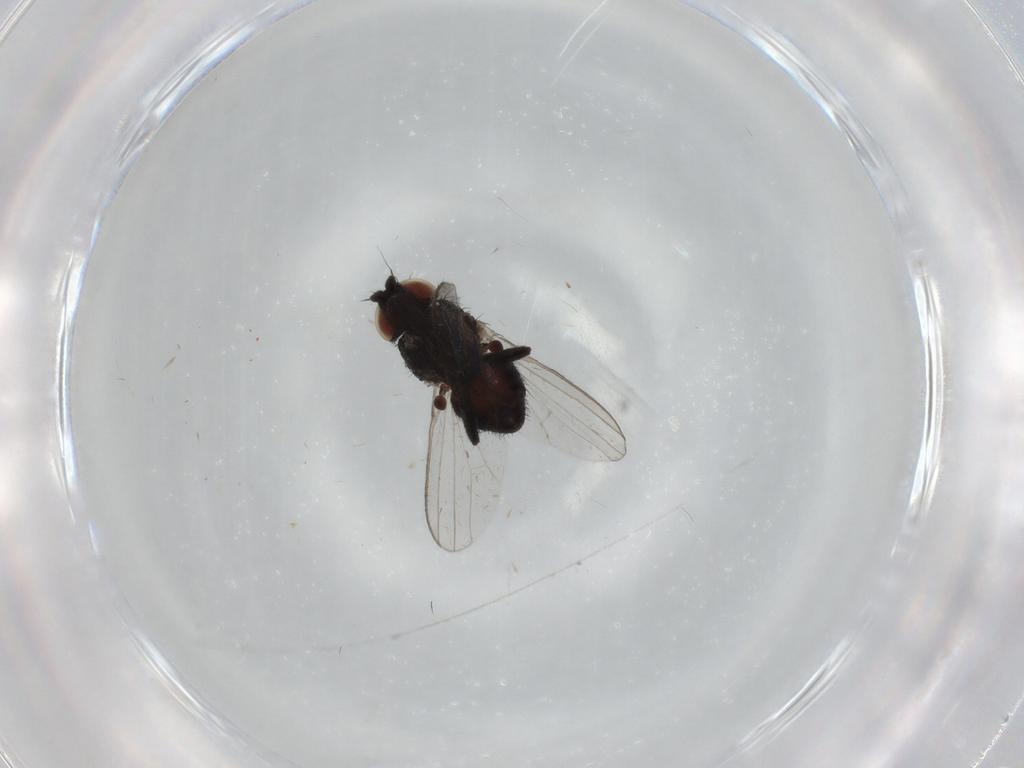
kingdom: Animalia
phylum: Arthropoda
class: Insecta
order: Diptera
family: Milichiidae
